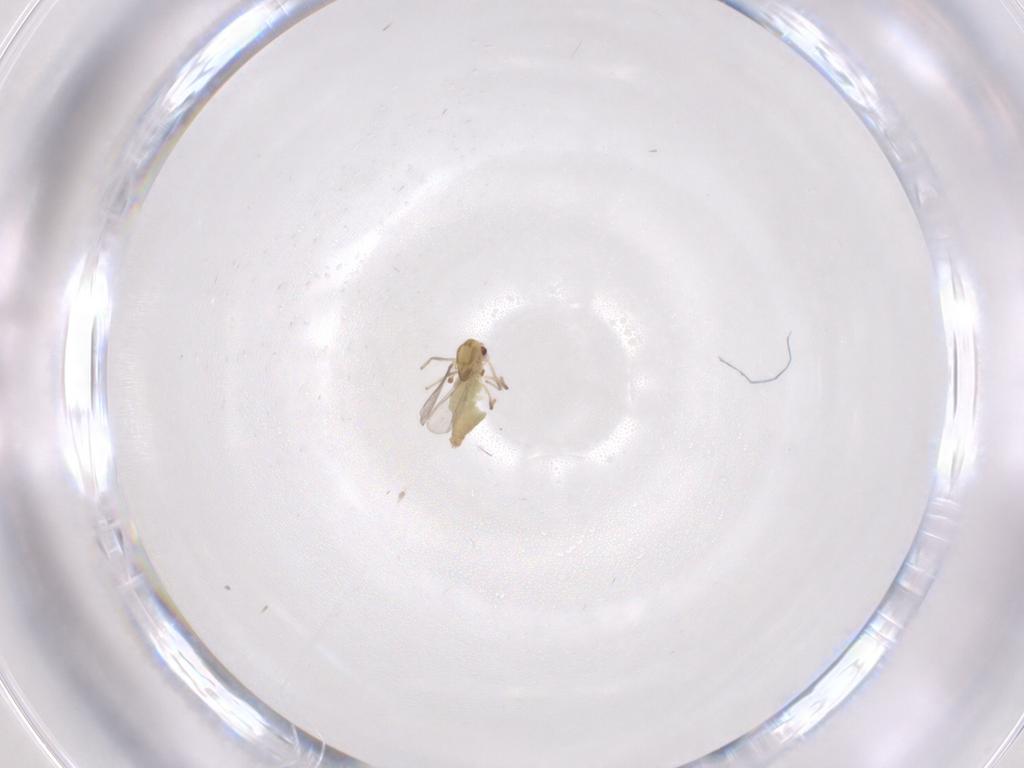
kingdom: Animalia
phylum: Arthropoda
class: Insecta
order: Diptera
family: Chironomidae
